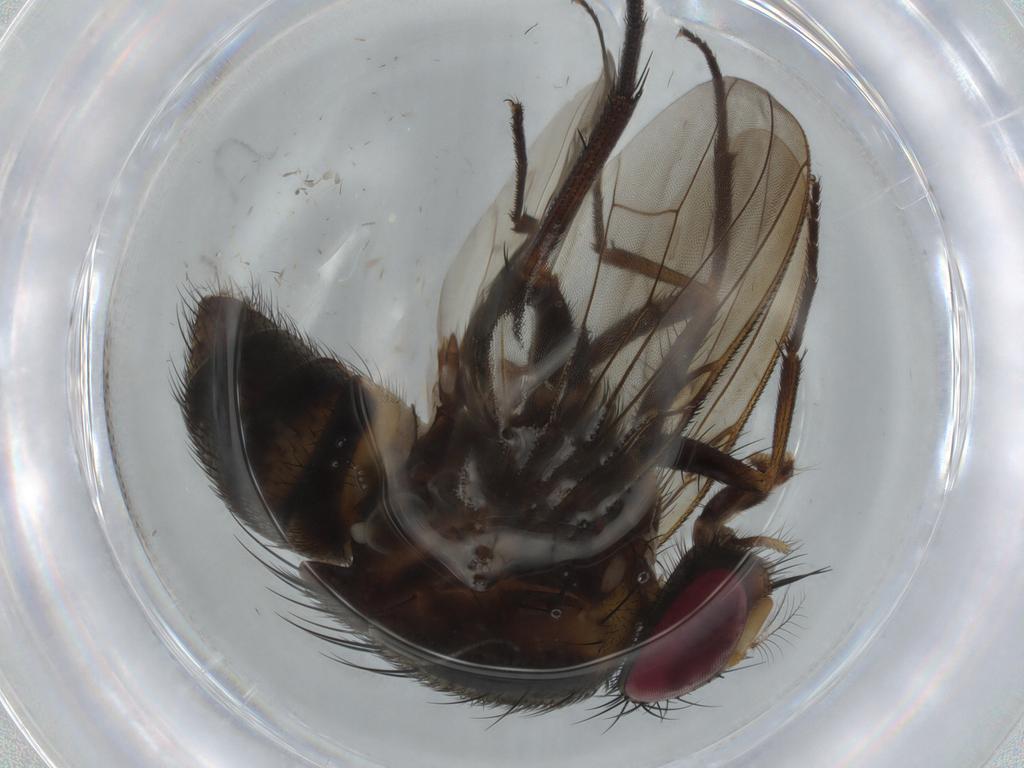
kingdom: Animalia
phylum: Arthropoda
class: Insecta
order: Diptera
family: Muscidae
